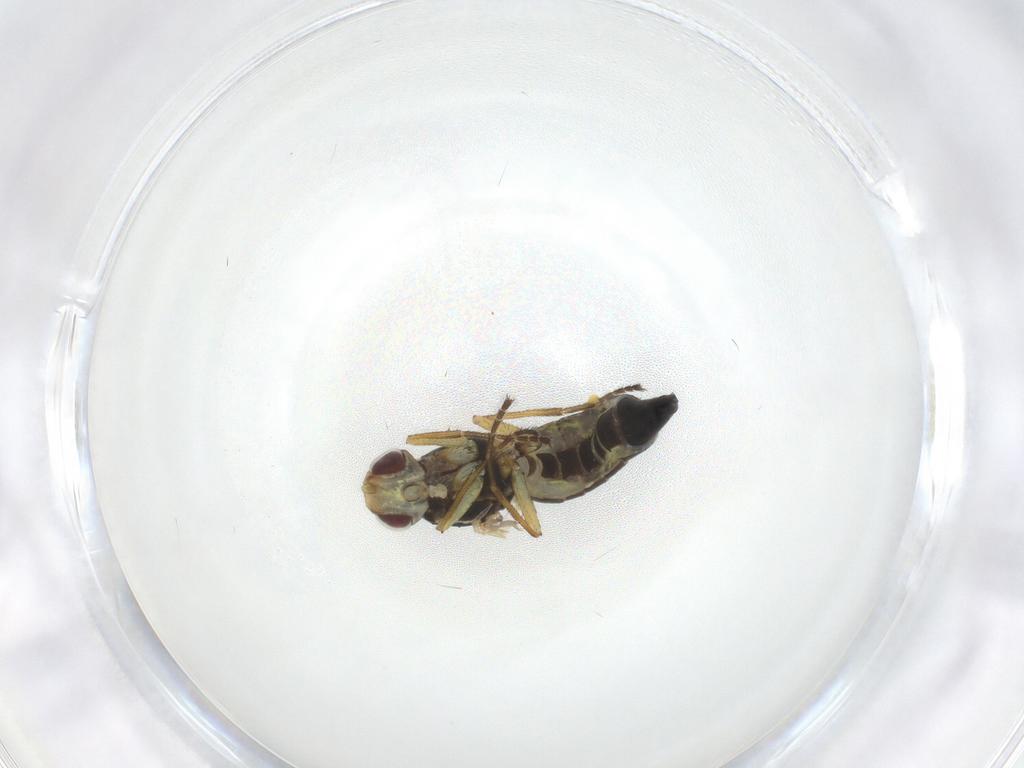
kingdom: Animalia
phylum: Arthropoda
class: Insecta
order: Diptera
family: Agromyzidae
